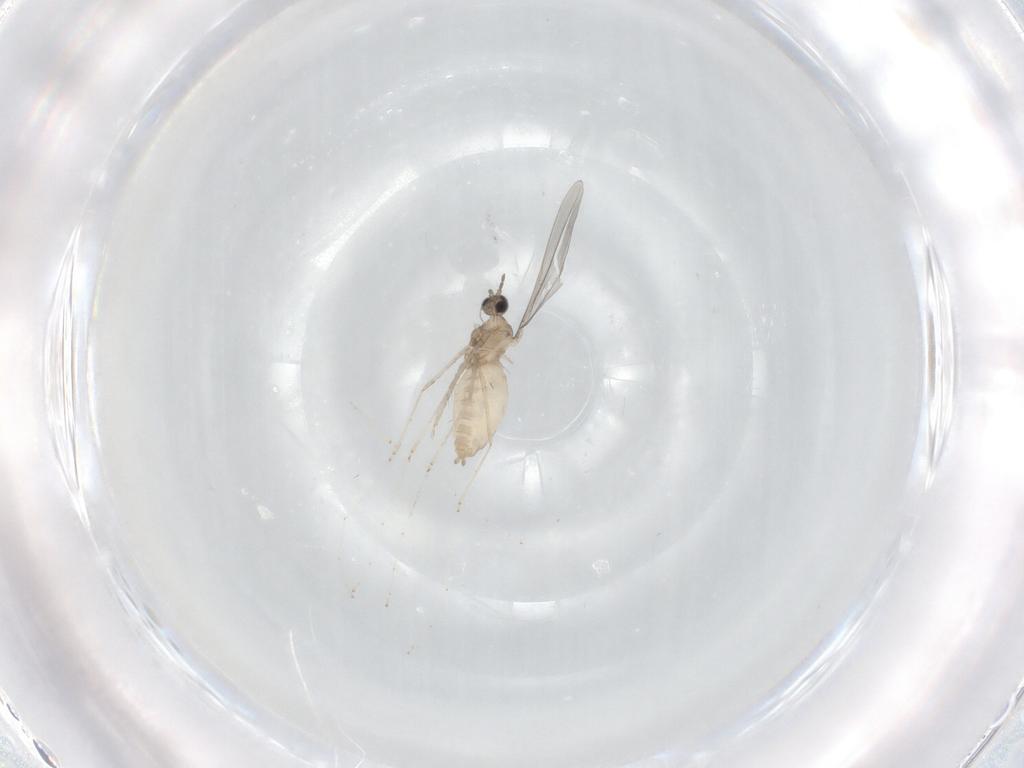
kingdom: Animalia
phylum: Arthropoda
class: Insecta
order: Diptera
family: Cecidomyiidae
